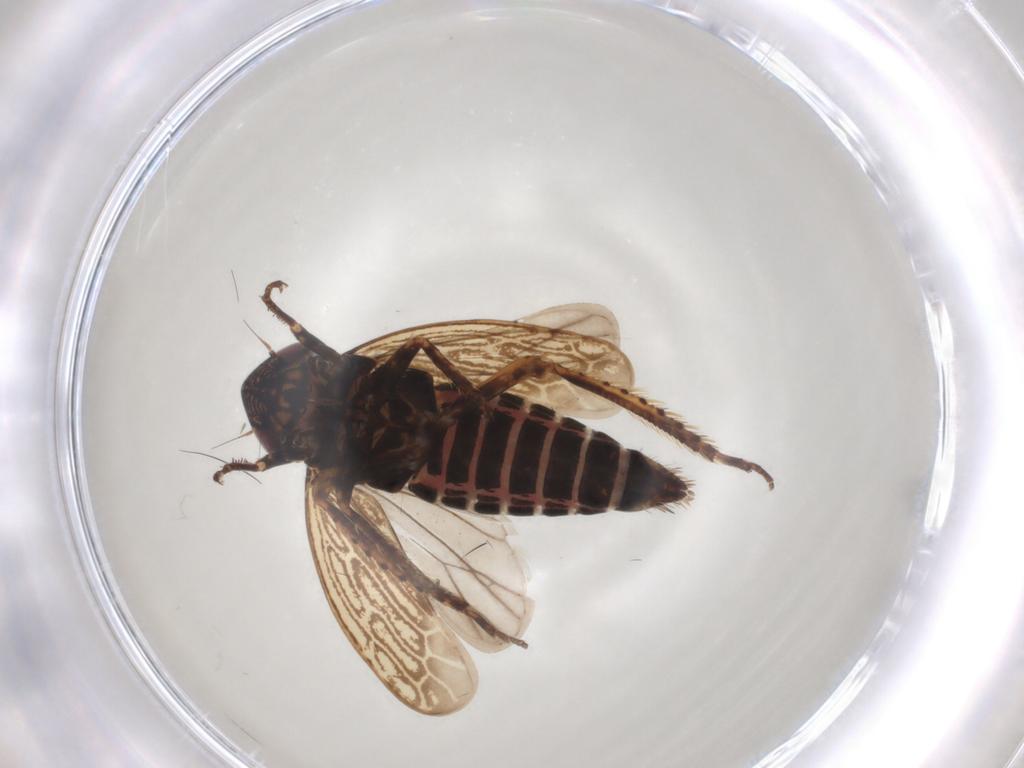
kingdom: Animalia
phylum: Arthropoda
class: Insecta
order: Hemiptera
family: Cicadellidae
